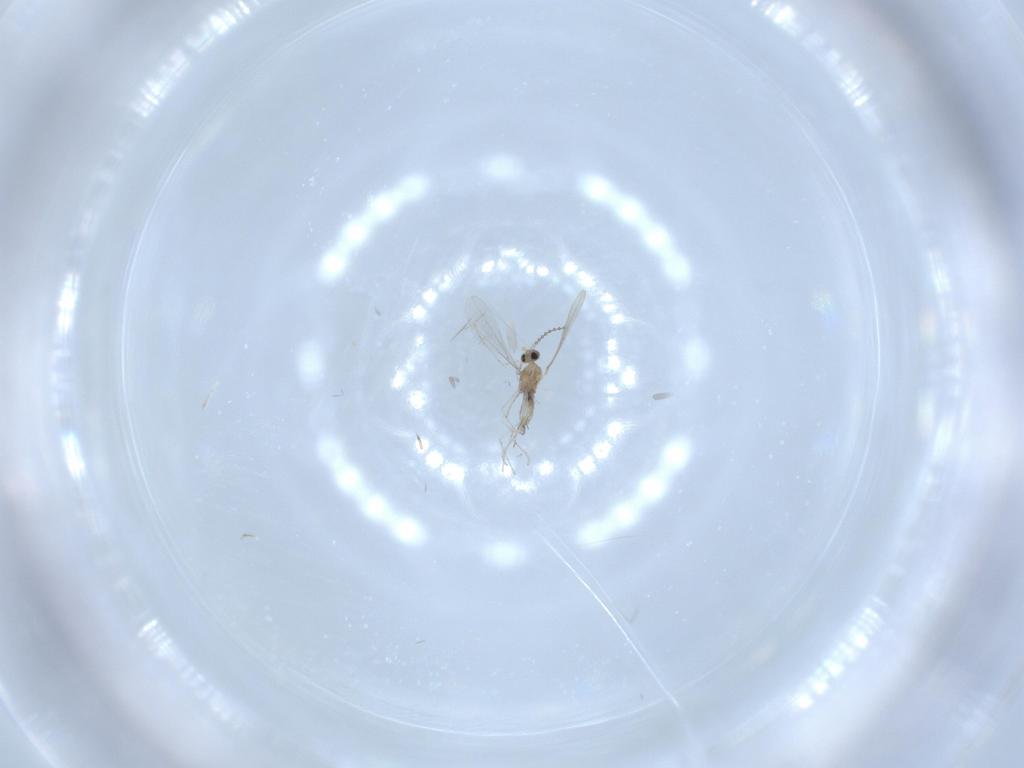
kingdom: Animalia
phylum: Arthropoda
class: Insecta
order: Diptera
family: Cecidomyiidae
